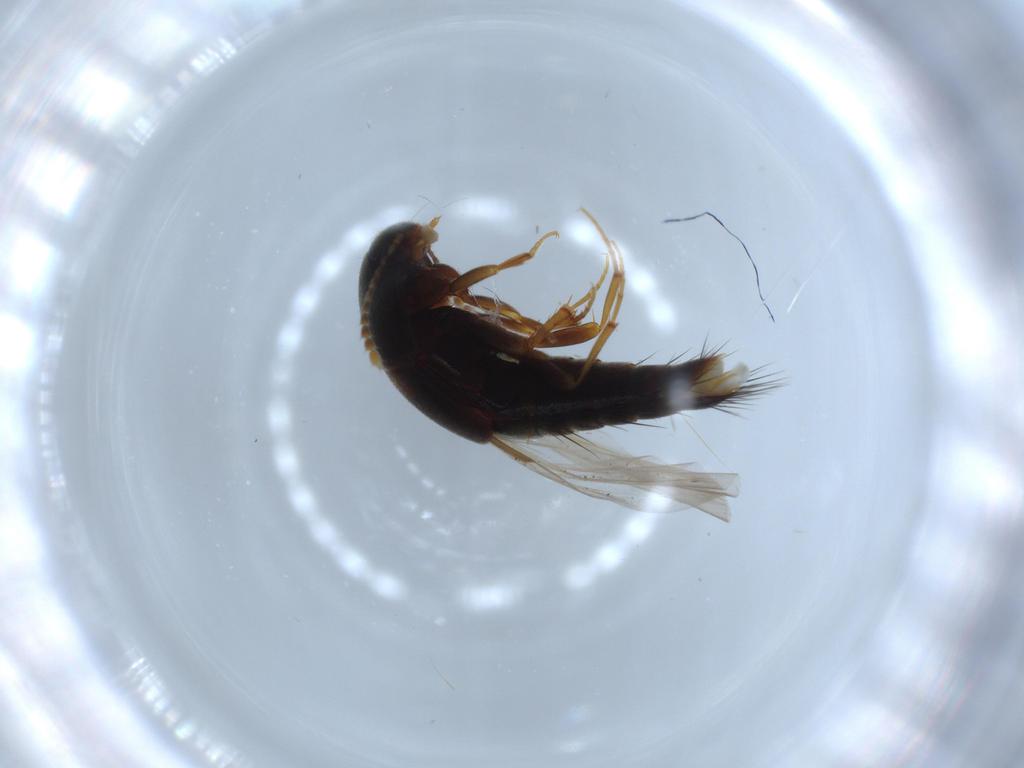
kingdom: Animalia
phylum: Arthropoda
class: Insecta
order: Coleoptera
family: Staphylinidae
